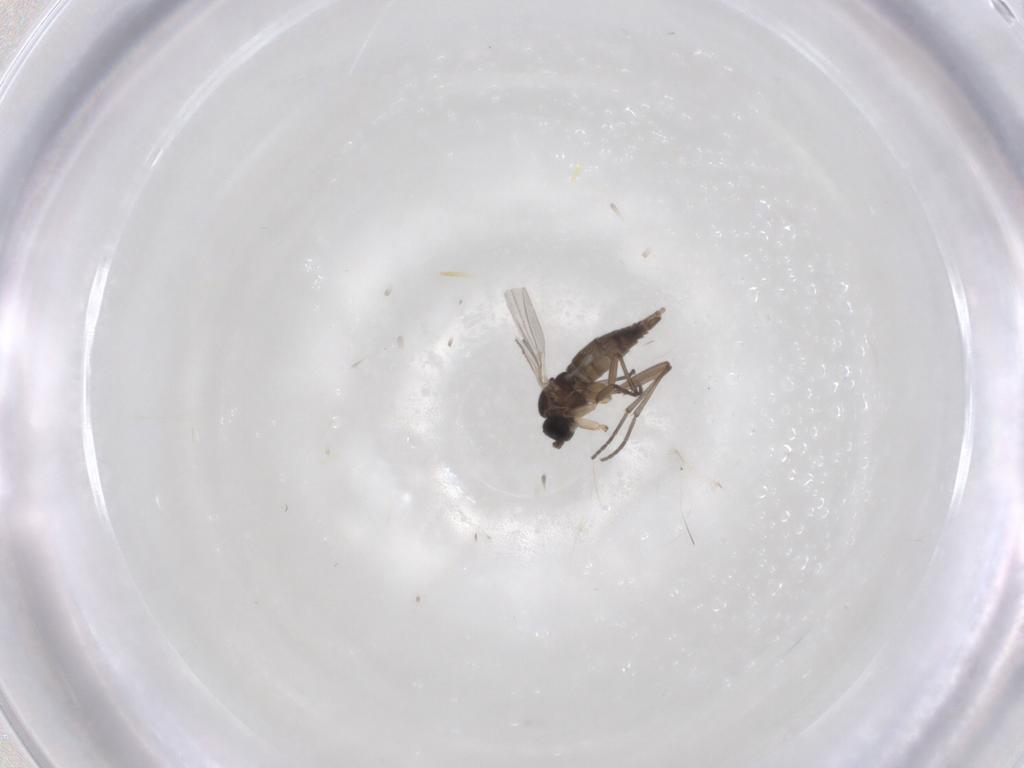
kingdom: Animalia
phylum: Arthropoda
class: Insecta
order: Diptera
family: Sciaridae
